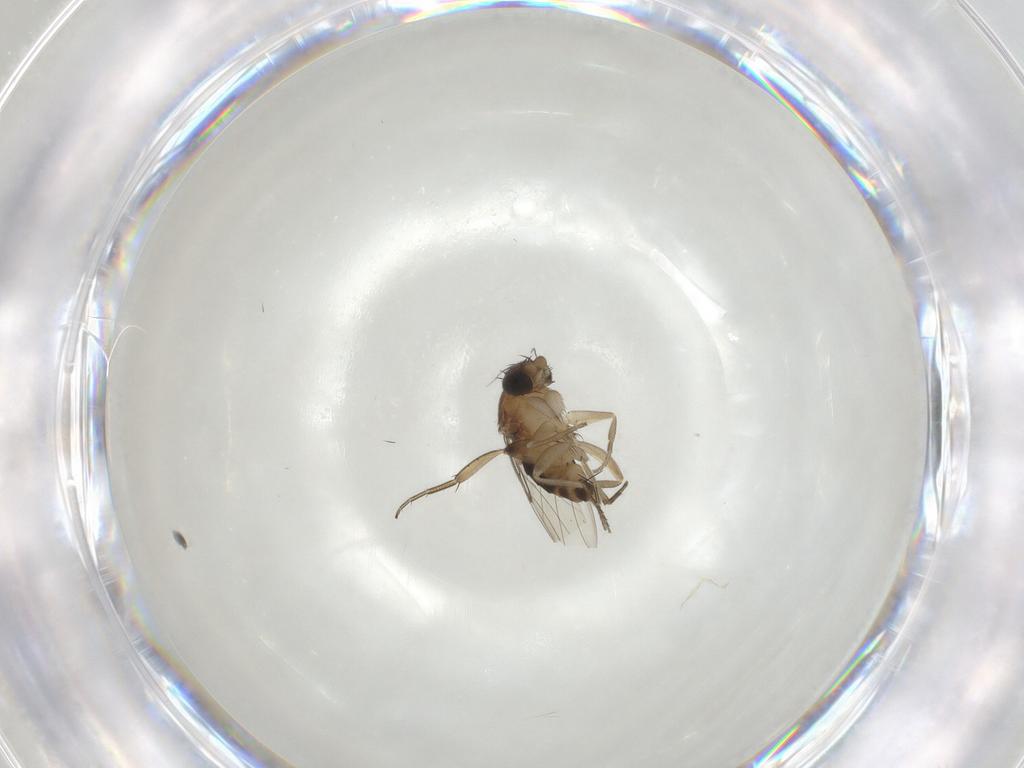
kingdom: Animalia
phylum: Arthropoda
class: Insecta
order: Diptera
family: Phoridae
